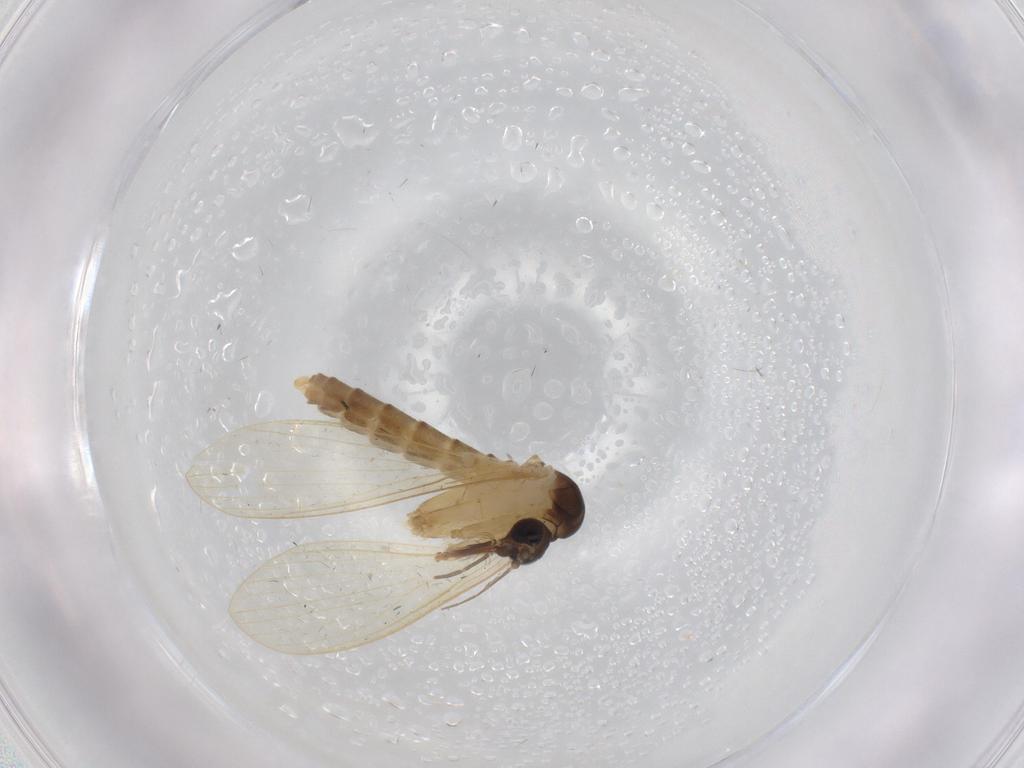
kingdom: Animalia
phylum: Arthropoda
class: Insecta
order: Diptera
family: Psychodidae
